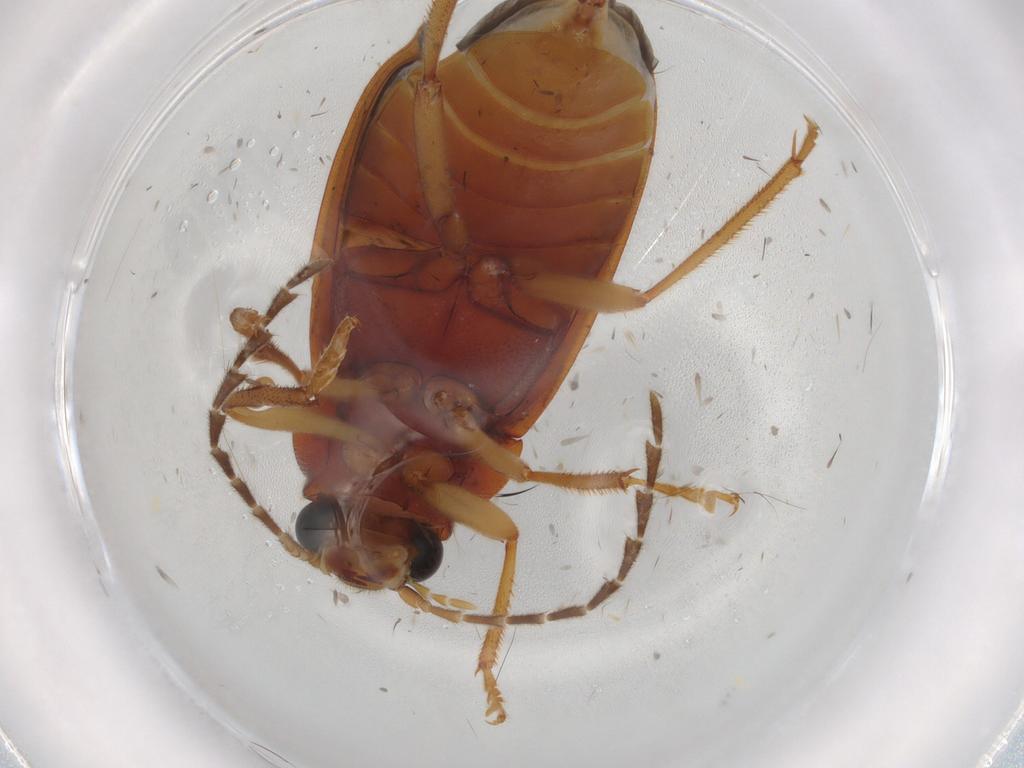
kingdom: Animalia
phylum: Arthropoda
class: Insecta
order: Coleoptera
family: Ptilodactylidae
